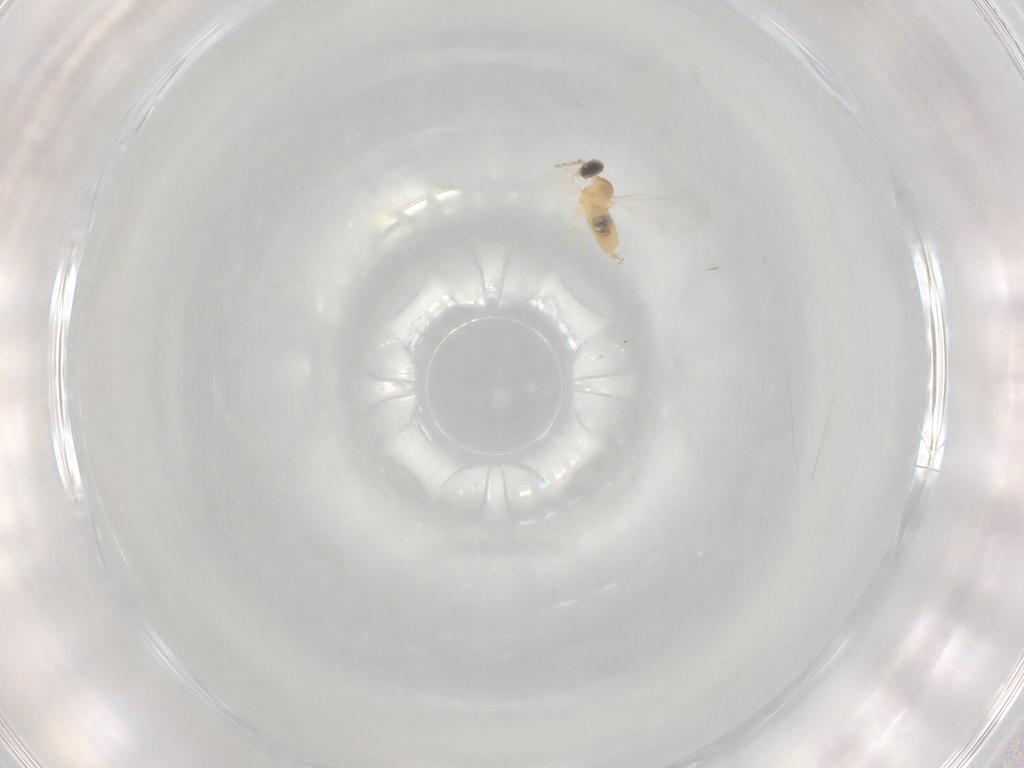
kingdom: Animalia
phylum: Arthropoda
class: Insecta
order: Diptera
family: Cecidomyiidae
